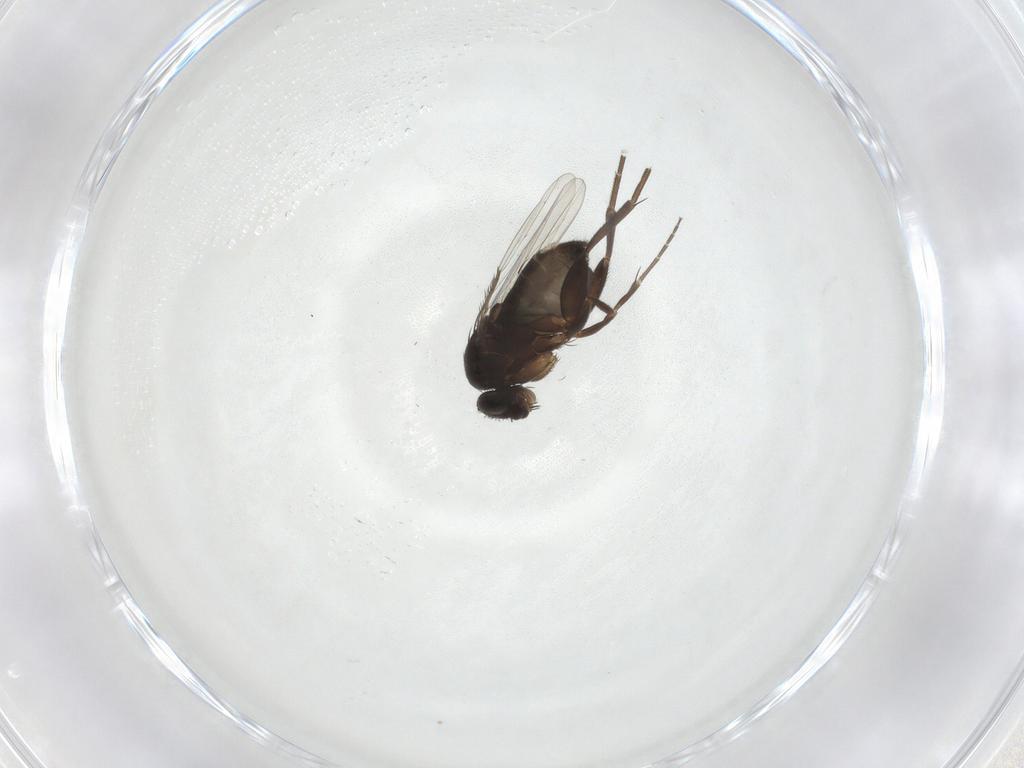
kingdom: Animalia
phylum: Arthropoda
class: Insecta
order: Diptera
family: Phoridae
